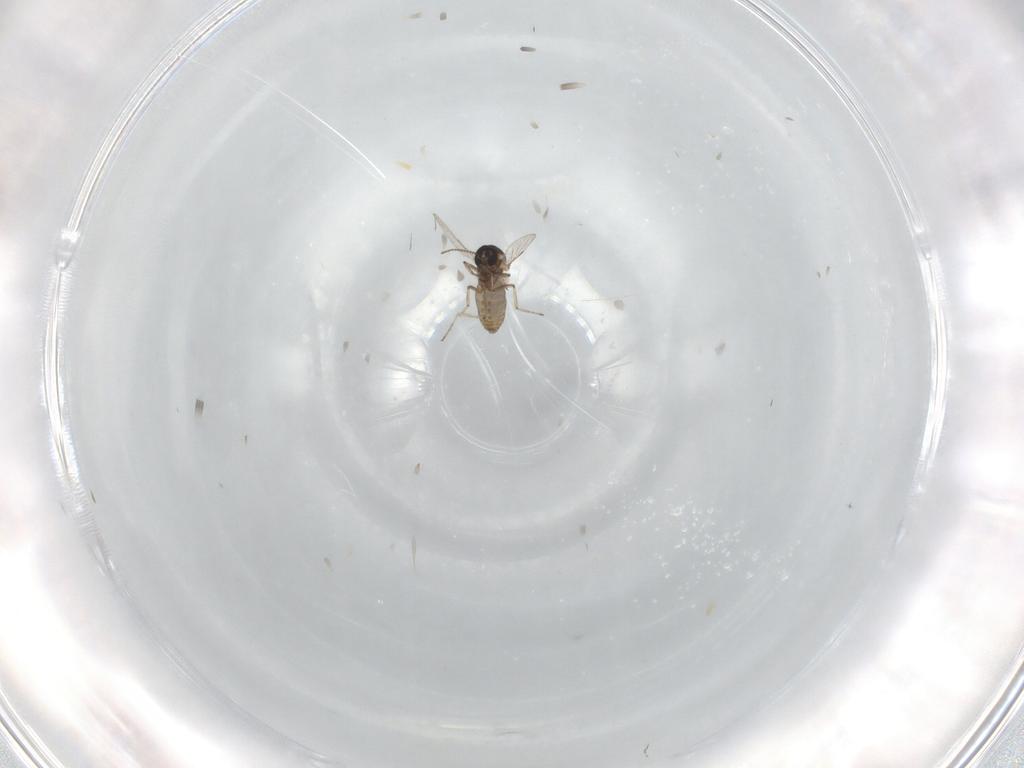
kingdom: Animalia
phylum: Arthropoda
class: Insecta
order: Diptera
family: Ceratopogonidae
